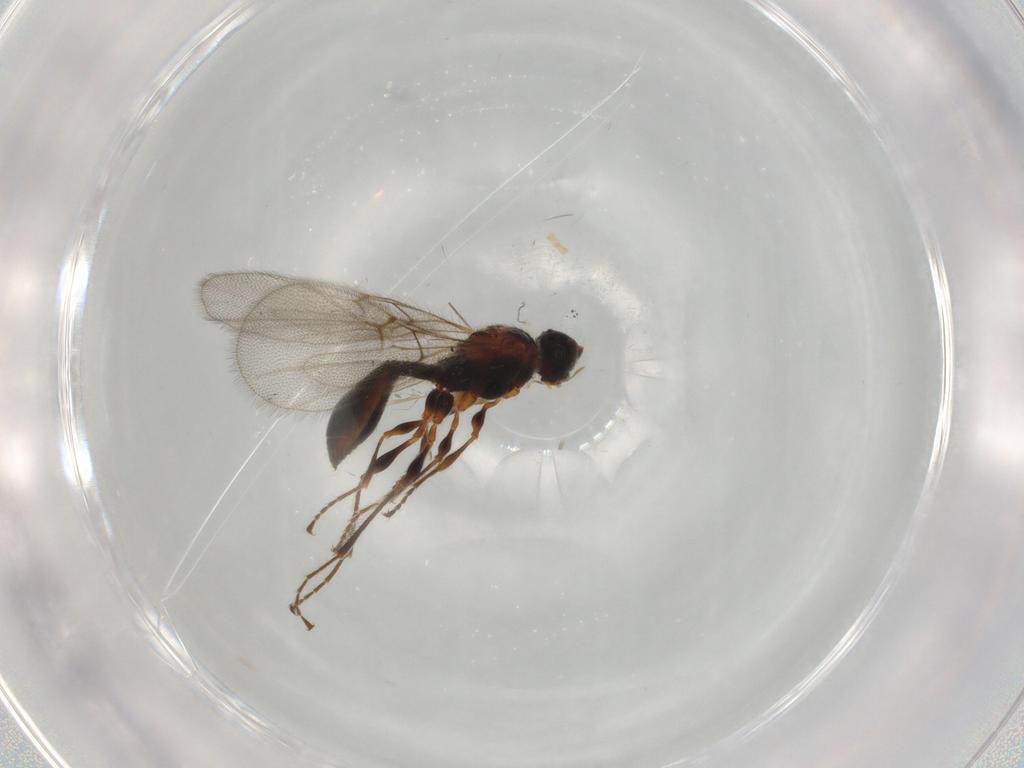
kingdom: Animalia
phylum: Arthropoda
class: Insecta
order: Hymenoptera
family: Diapriidae
